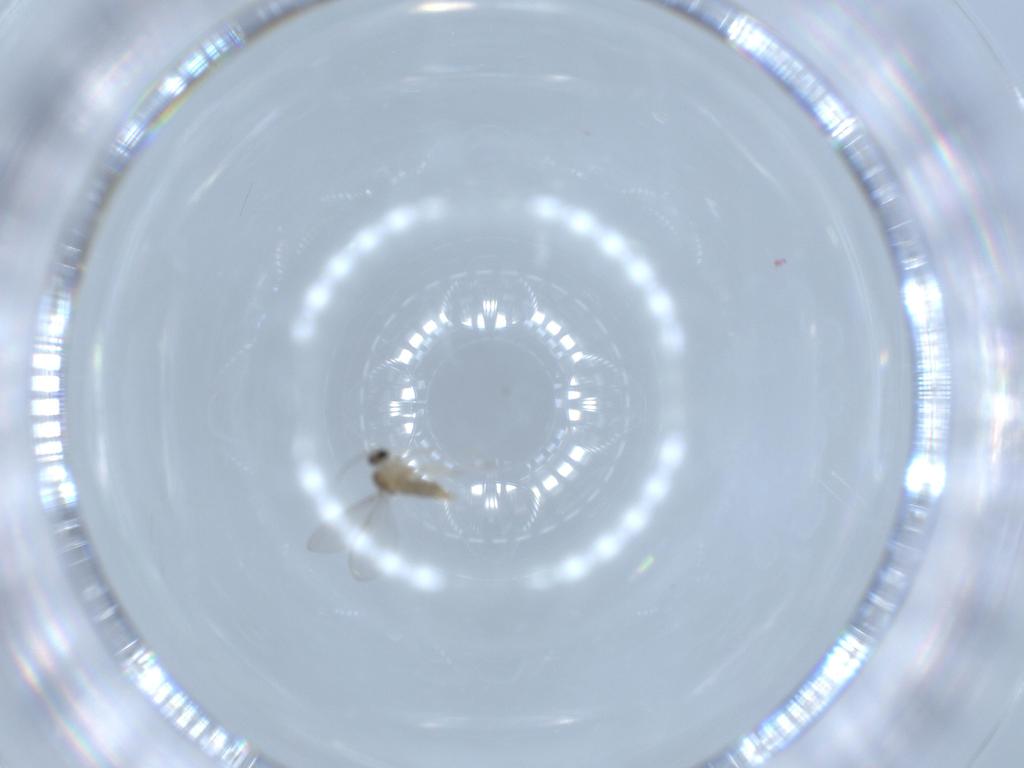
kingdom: Animalia
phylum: Arthropoda
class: Insecta
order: Diptera
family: Cecidomyiidae
